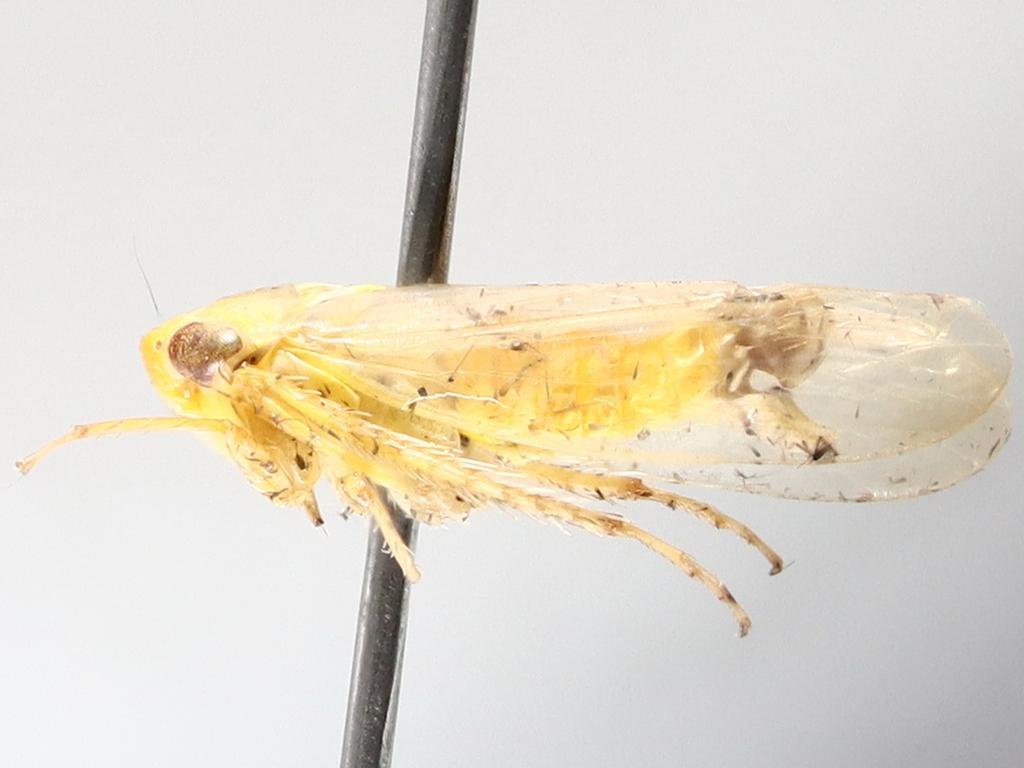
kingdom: Animalia
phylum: Arthropoda
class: Insecta
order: Diptera
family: Chironomidae
